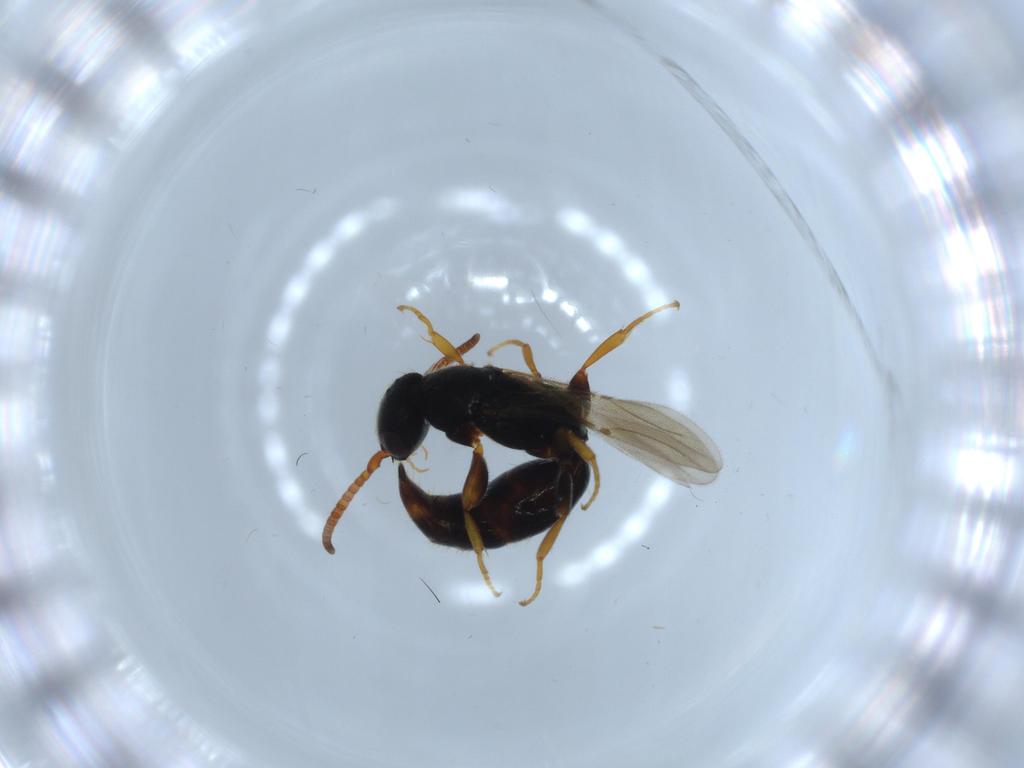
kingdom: Animalia
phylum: Arthropoda
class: Insecta
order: Hymenoptera
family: Bethylidae
